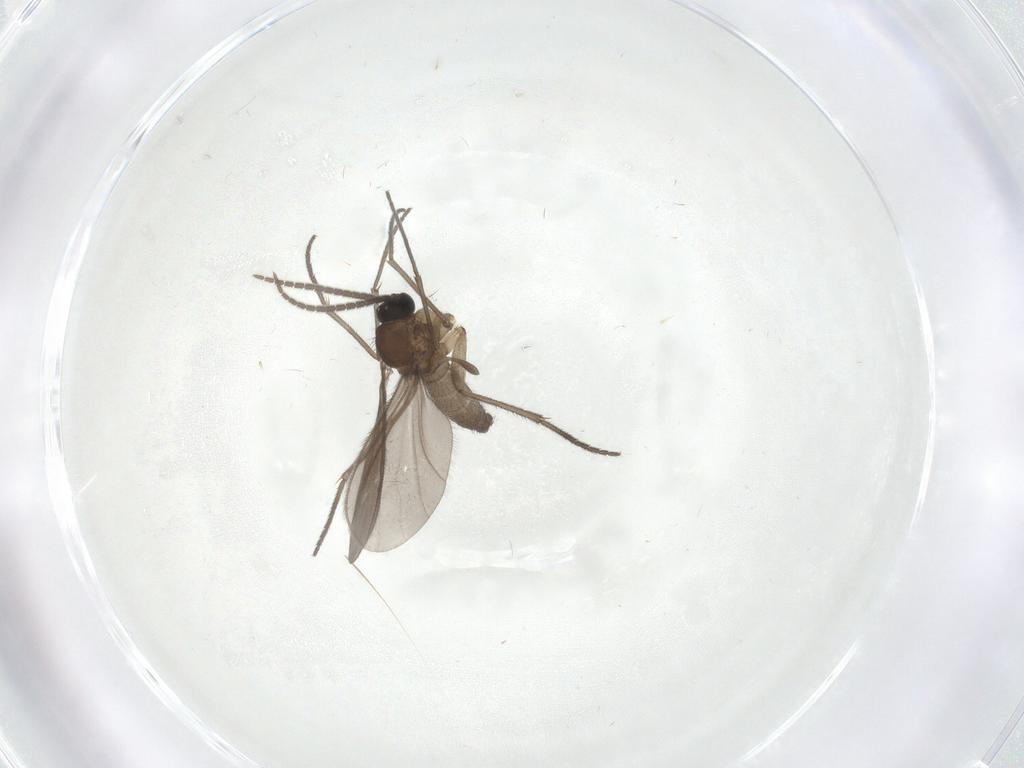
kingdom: Animalia
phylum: Arthropoda
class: Insecta
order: Diptera
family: Sciaridae
